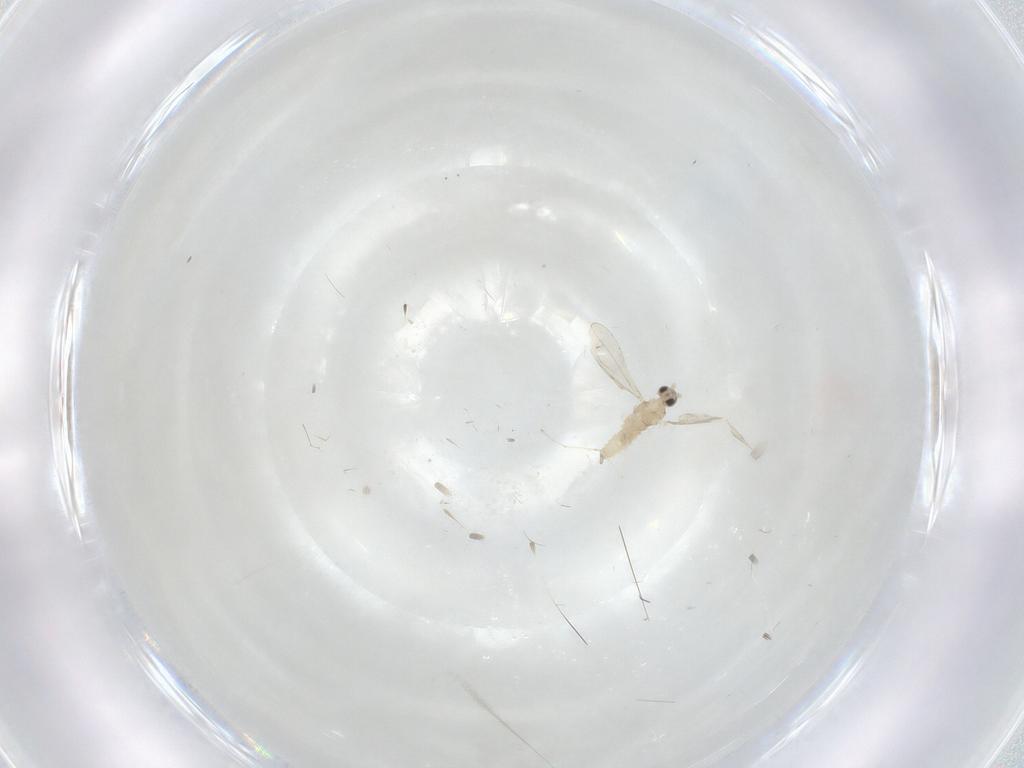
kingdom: Animalia
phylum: Arthropoda
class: Insecta
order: Diptera
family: Cecidomyiidae
